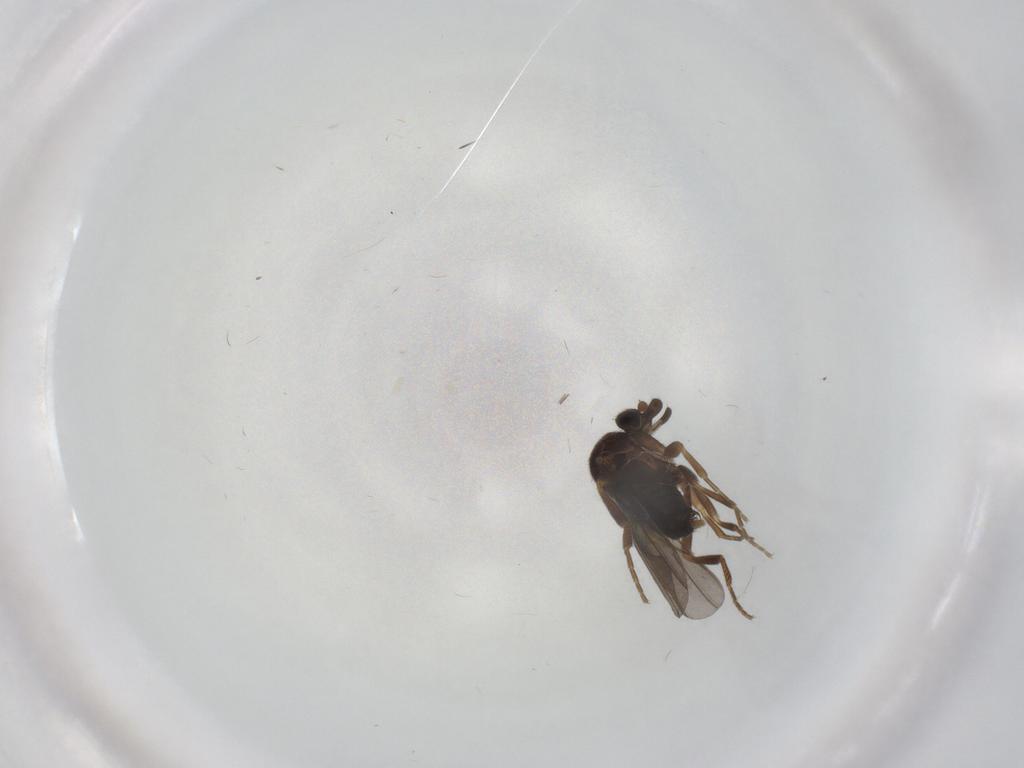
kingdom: Animalia
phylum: Arthropoda
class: Insecta
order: Diptera
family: Phoridae
